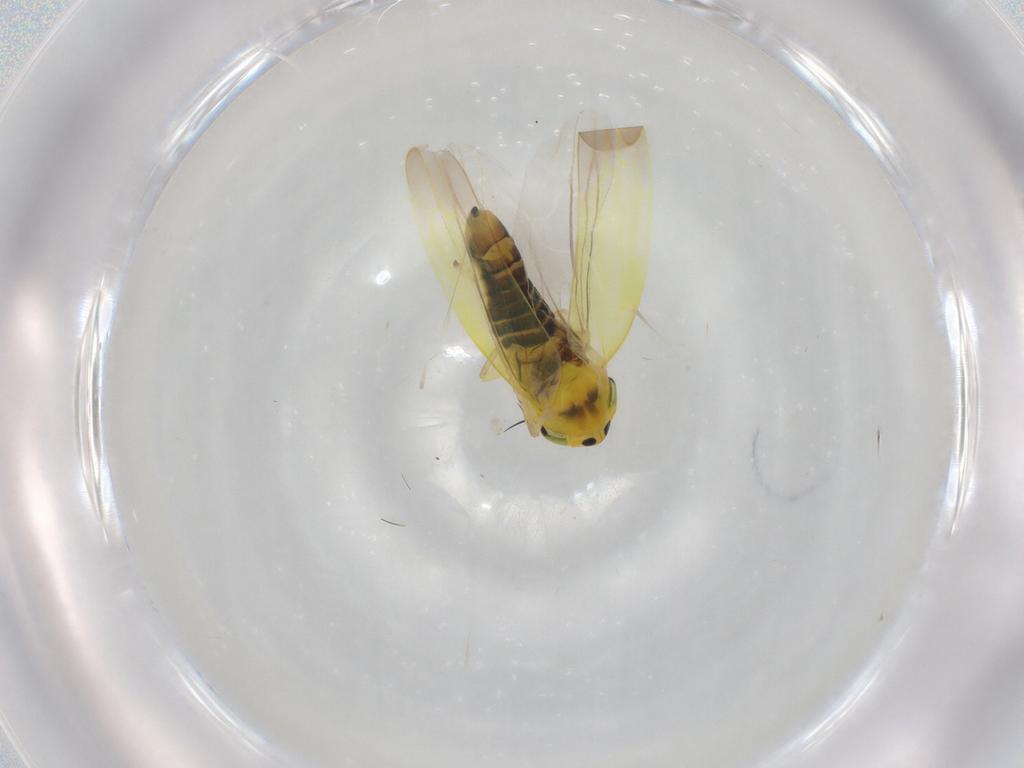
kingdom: Animalia
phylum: Arthropoda
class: Insecta
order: Hemiptera
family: Cicadellidae
